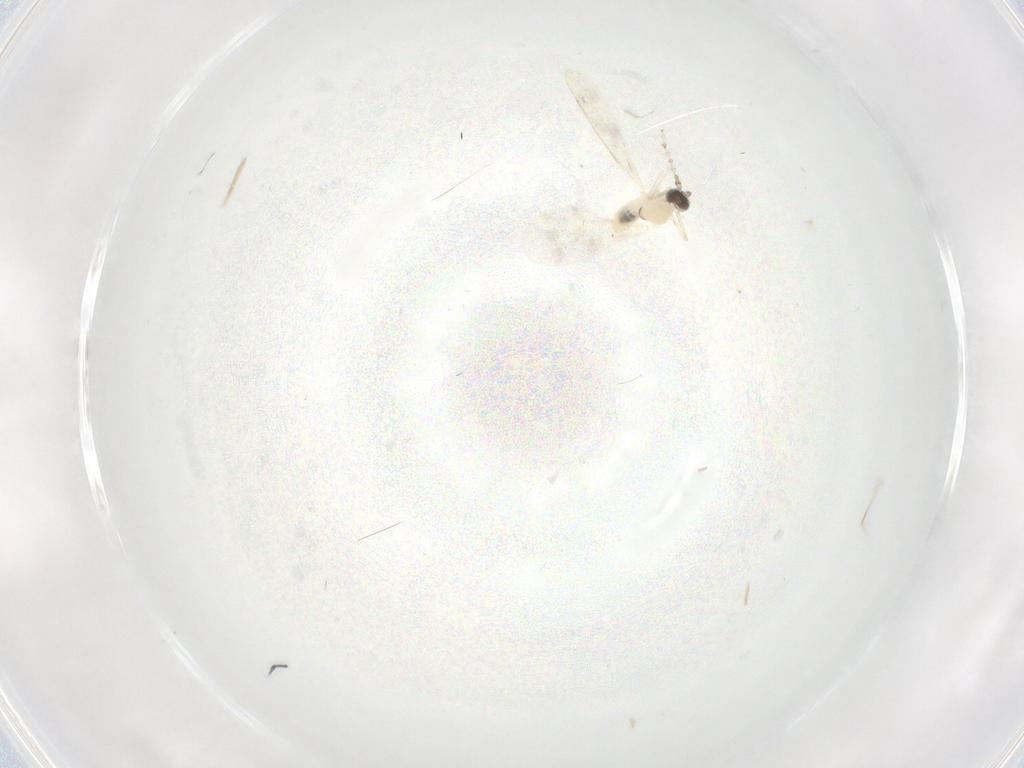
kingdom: Animalia
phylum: Arthropoda
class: Insecta
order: Diptera
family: Cecidomyiidae
